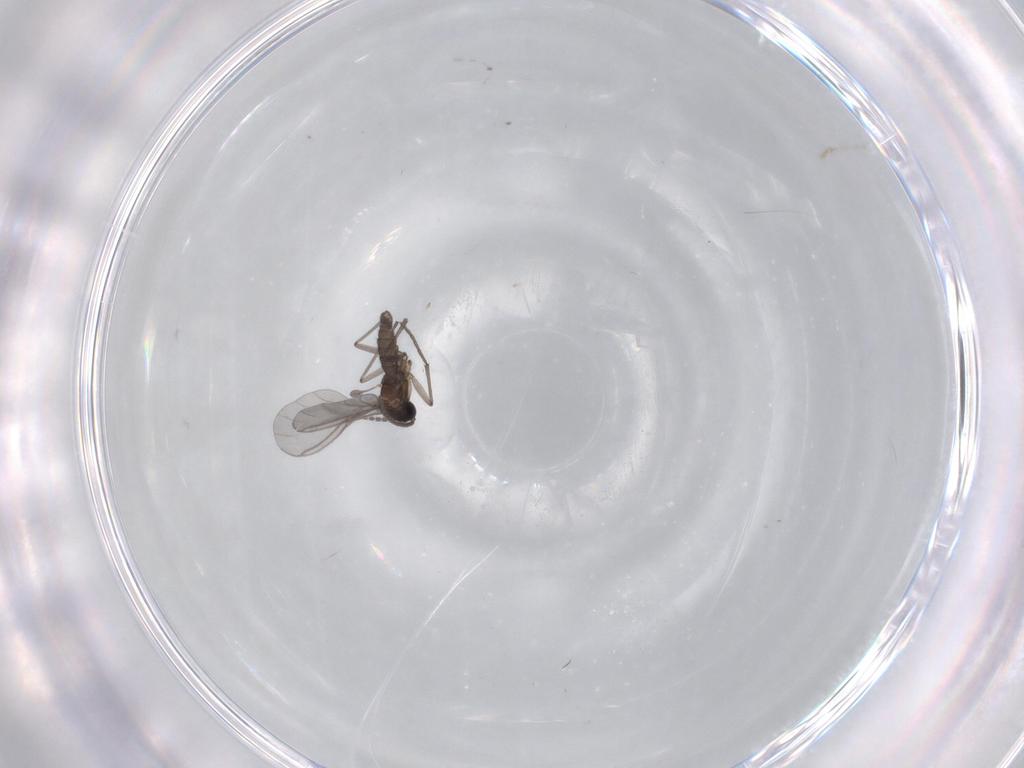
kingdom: Animalia
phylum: Arthropoda
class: Insecta
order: Diptera
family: Sciaridae
